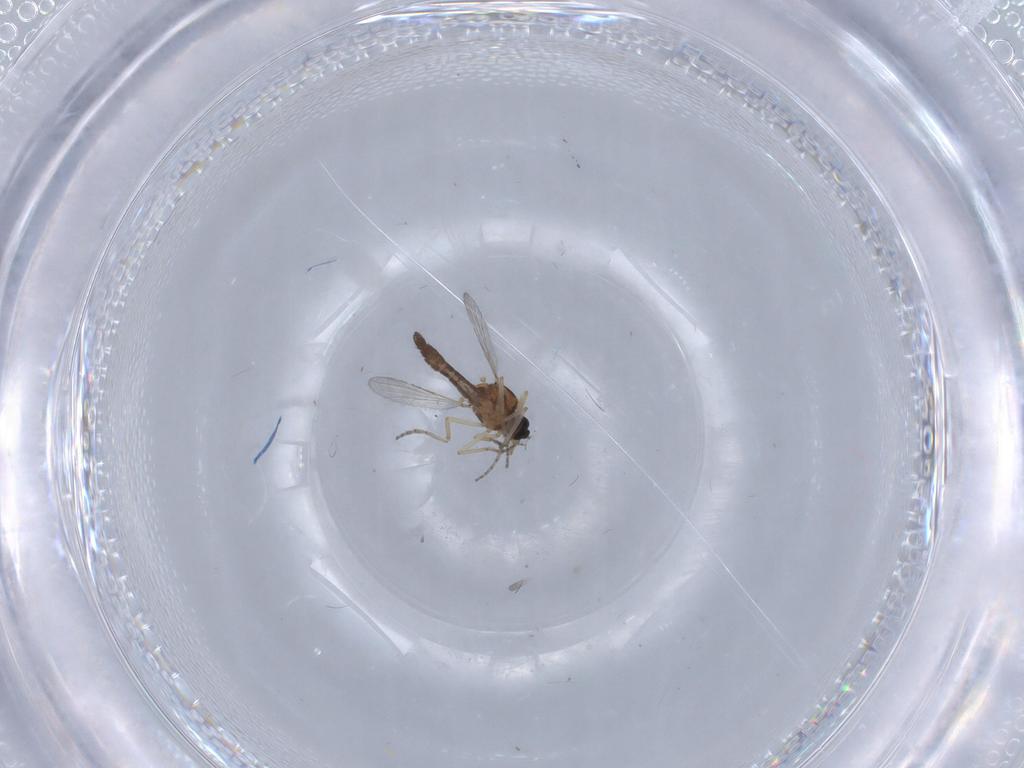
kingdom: Animalia
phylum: Arthropoda
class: Insecta
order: Diptera
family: Ceratopogonidae
